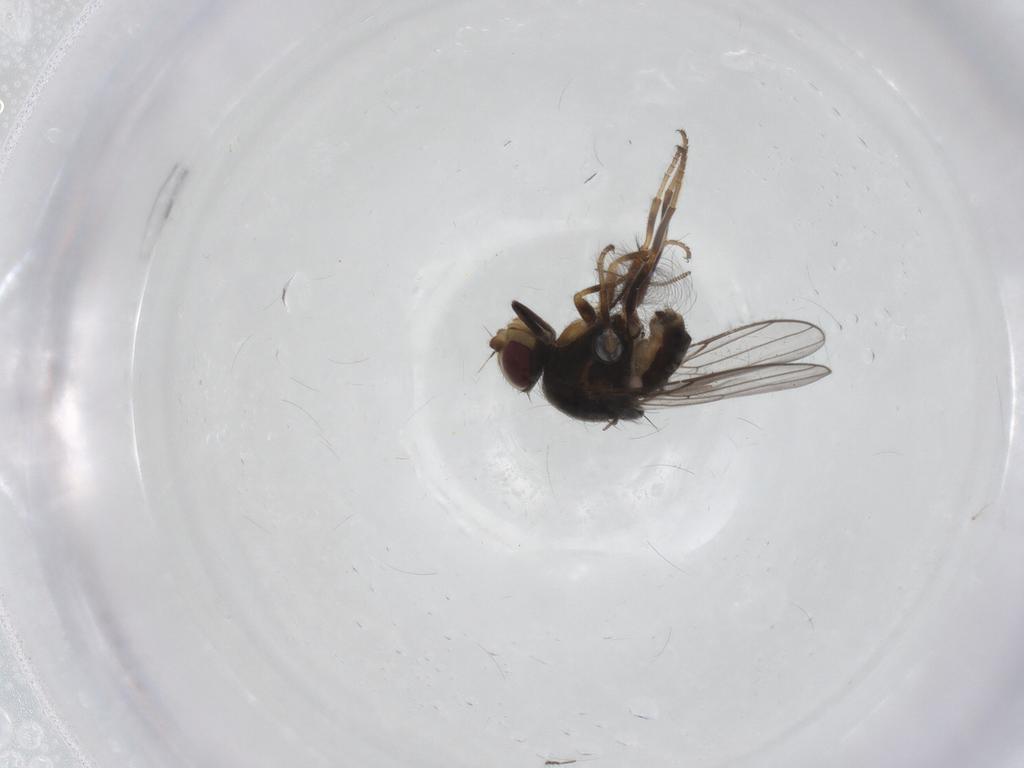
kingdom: Animalia
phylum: Arthropoda
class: Insecta
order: Diptera
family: Chloropidae
